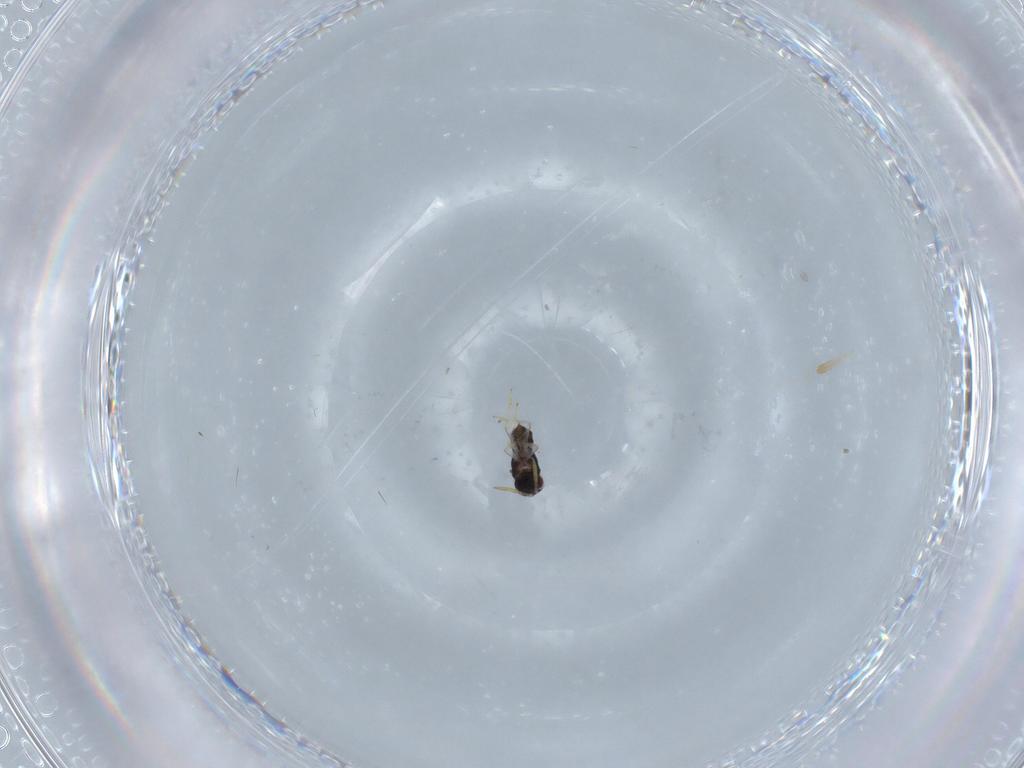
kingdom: Animalia
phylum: Arthropoda
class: Insecta
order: Hymenoptera
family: Aphelinidae
